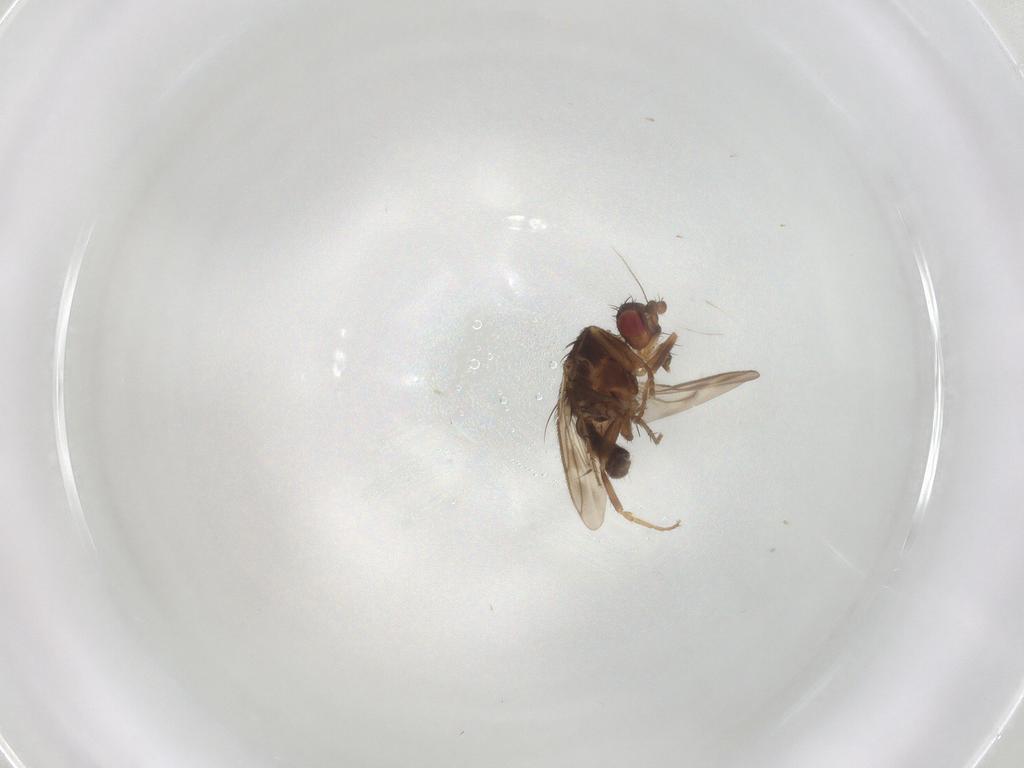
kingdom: Animalia
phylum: Arthropoda
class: Insecta
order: Diptera
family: Sphaeroceridae
